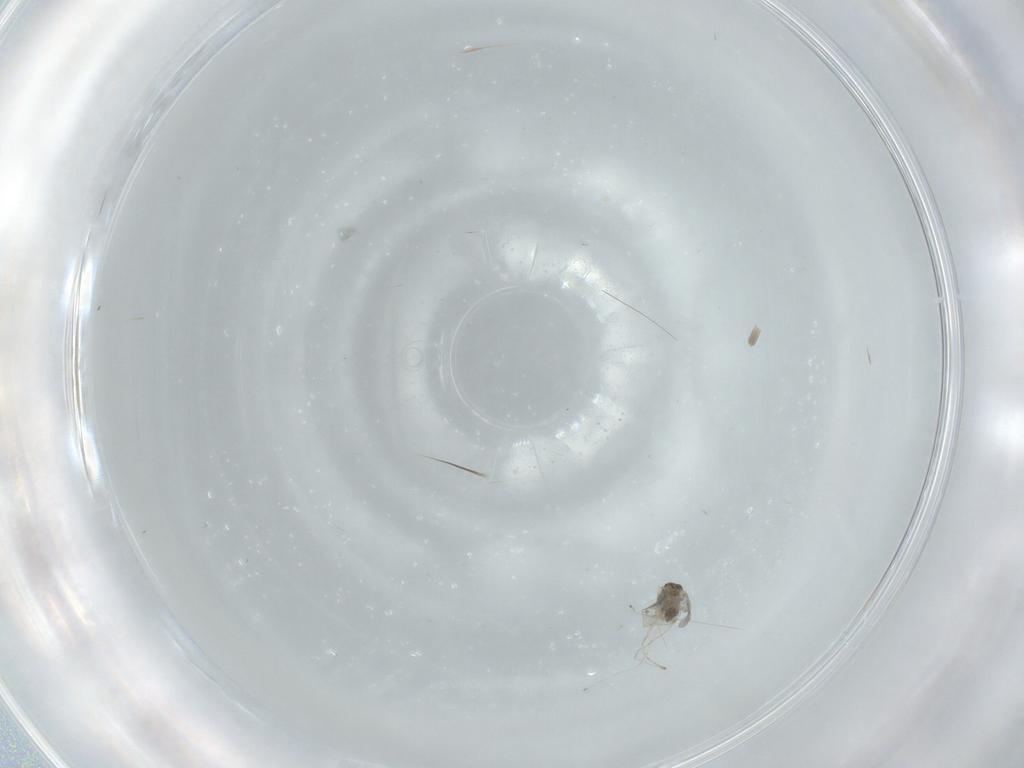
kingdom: Animalia
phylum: Arthropoda
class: Insecta
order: Diptera
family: Cecidomyiidae
